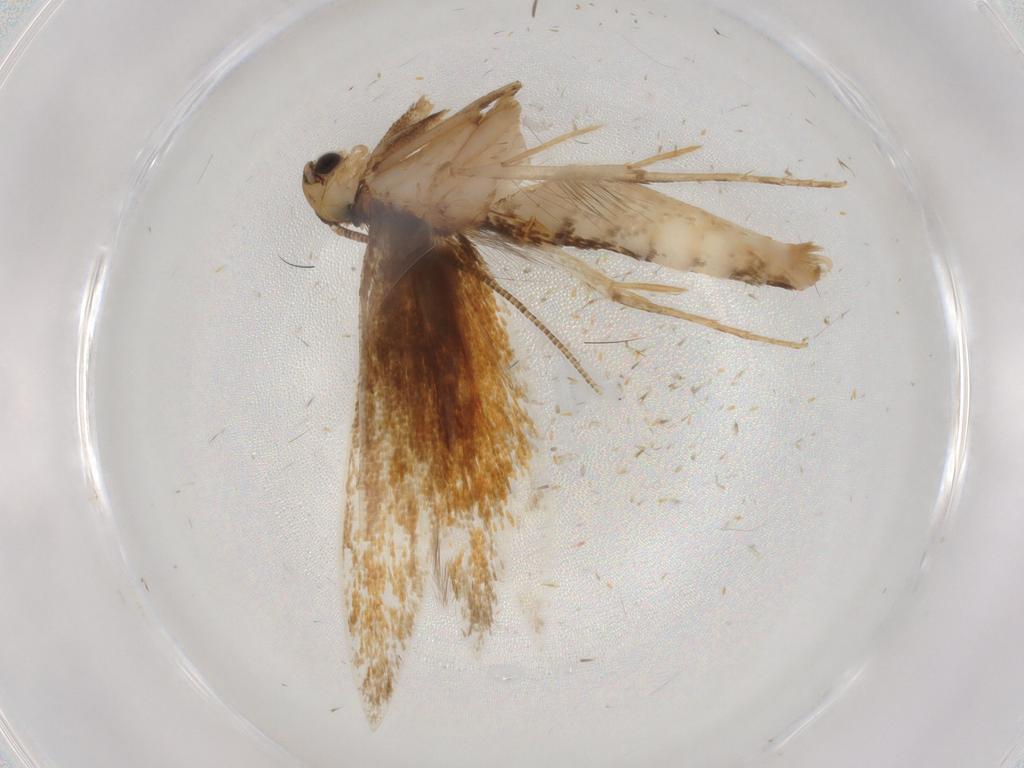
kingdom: Animalia
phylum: Arthropoda
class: Insecta
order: Lepidoptera
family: Tineidae
